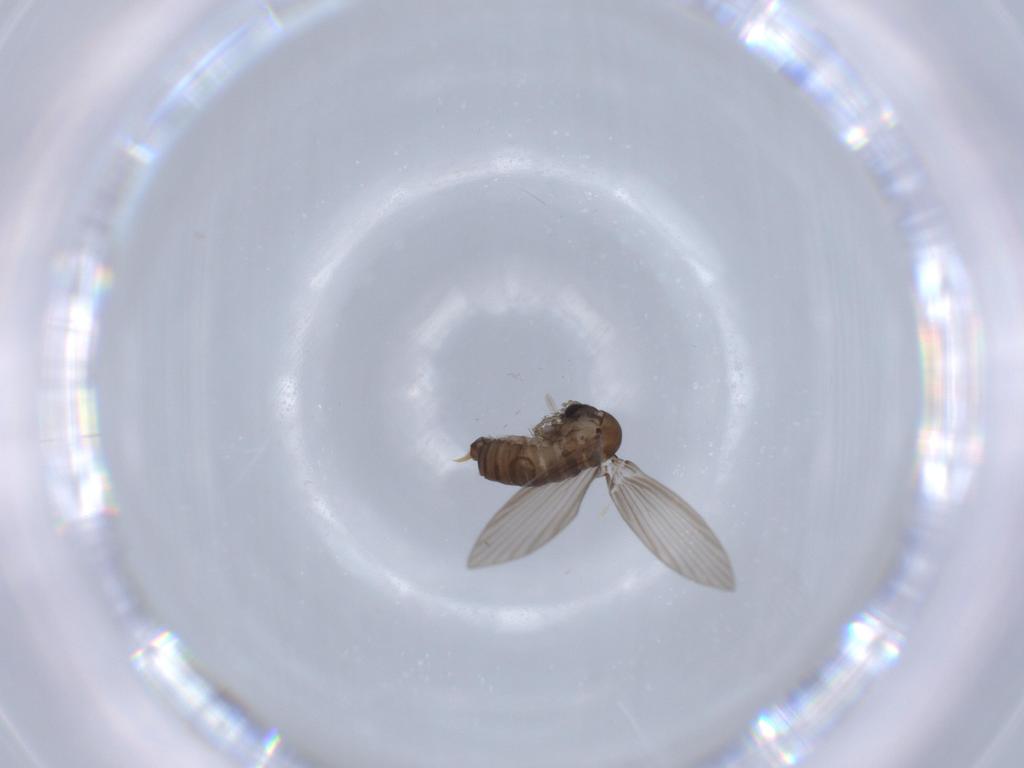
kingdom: Animalia
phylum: Arthropoda
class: Insecta
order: Diptera
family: Psychodidae
